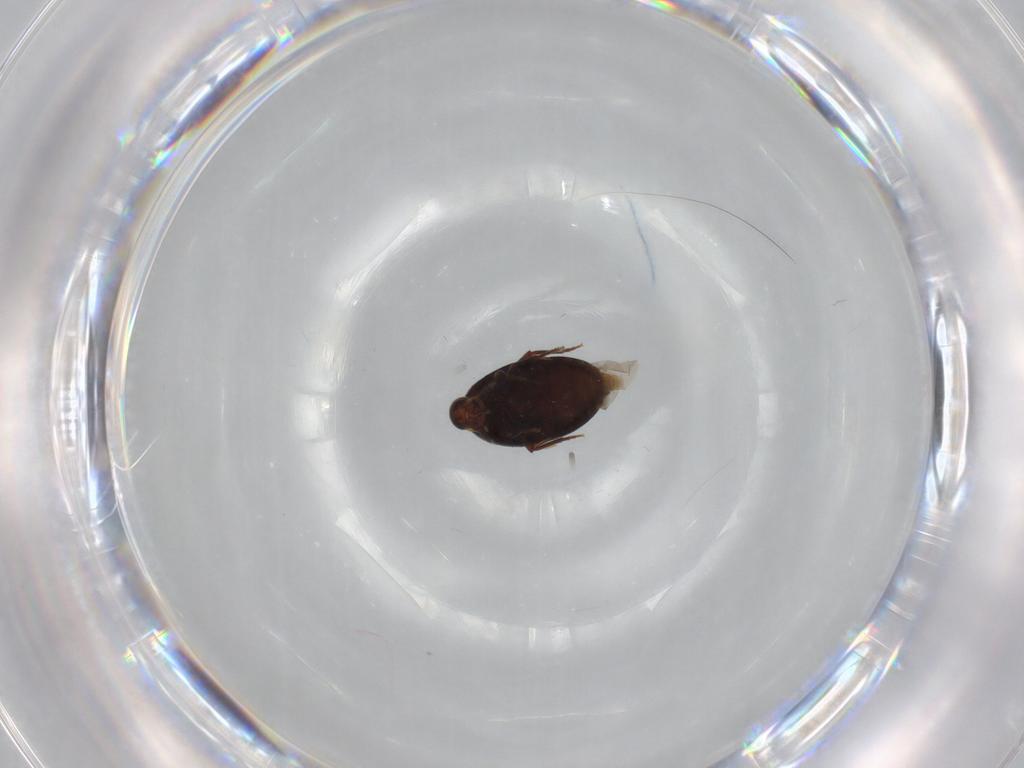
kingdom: Animalia
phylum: Arthropoda
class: Insecta
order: Coleoptera
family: Melandryidae
